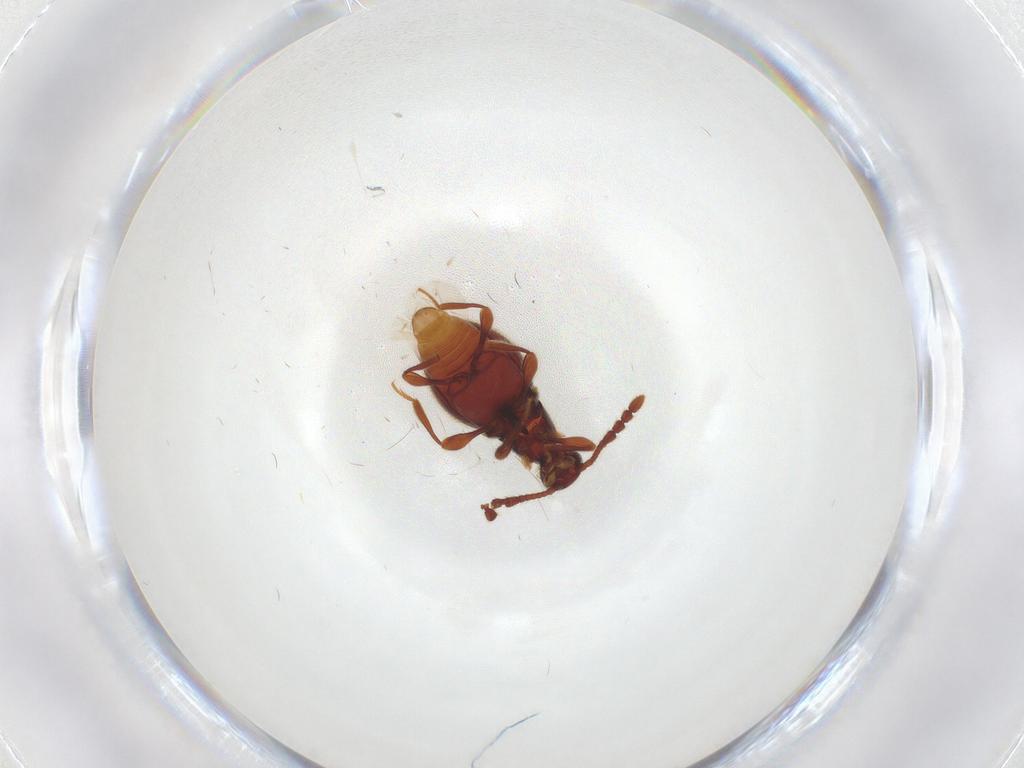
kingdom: Animalia
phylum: Arthropoda
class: Insecta
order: Coleoptera
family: Staphylinidae
